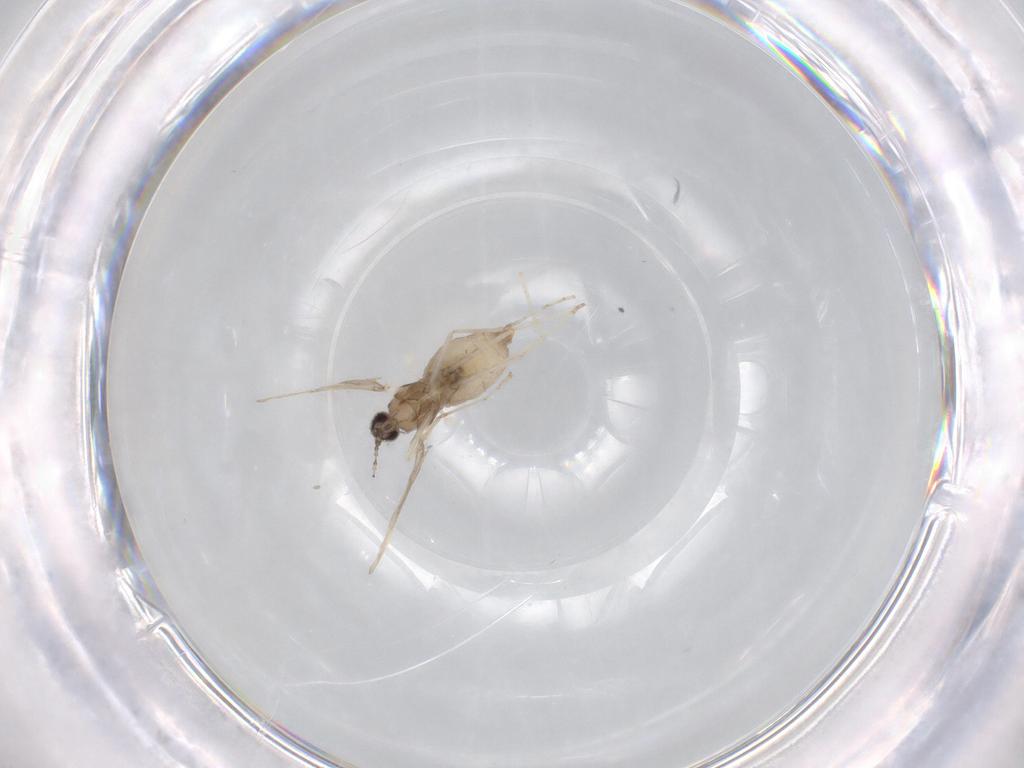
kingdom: Animalia
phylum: Arthropoda
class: Insecta
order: Diptera
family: Cecidomyiidae
